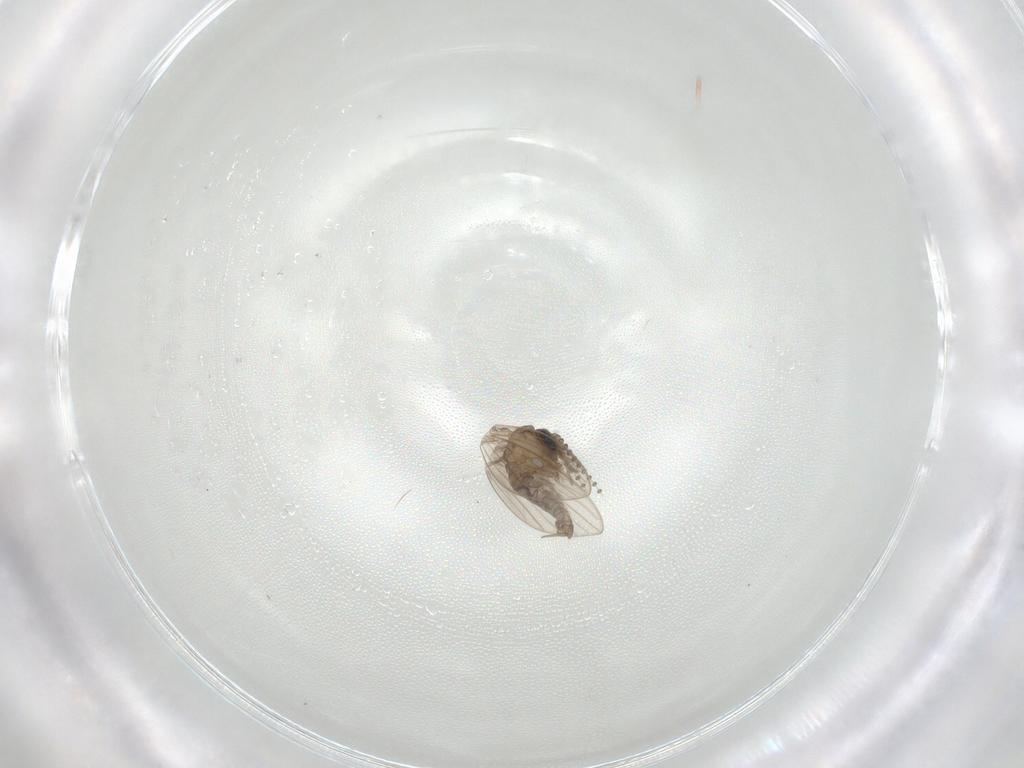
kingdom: Animalia
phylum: Arthropoda
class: Insecta
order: Diptera
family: Psychodidae
